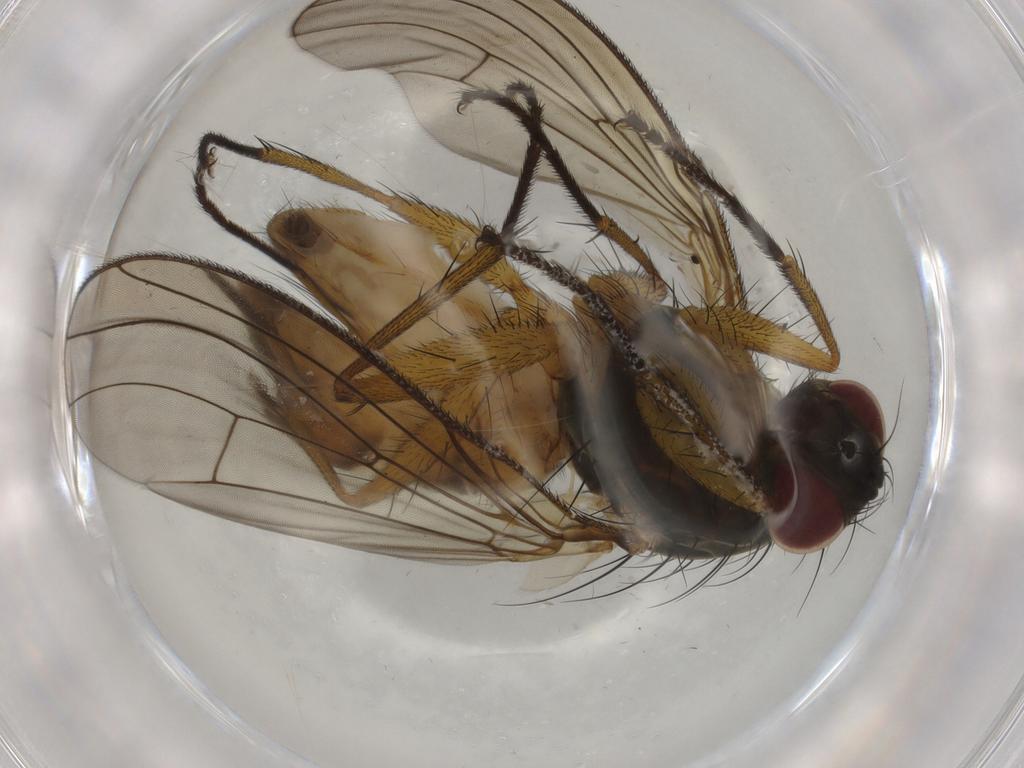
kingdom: Animalia
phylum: Arthropoda
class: Insecta
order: Diptera
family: Muscidae
